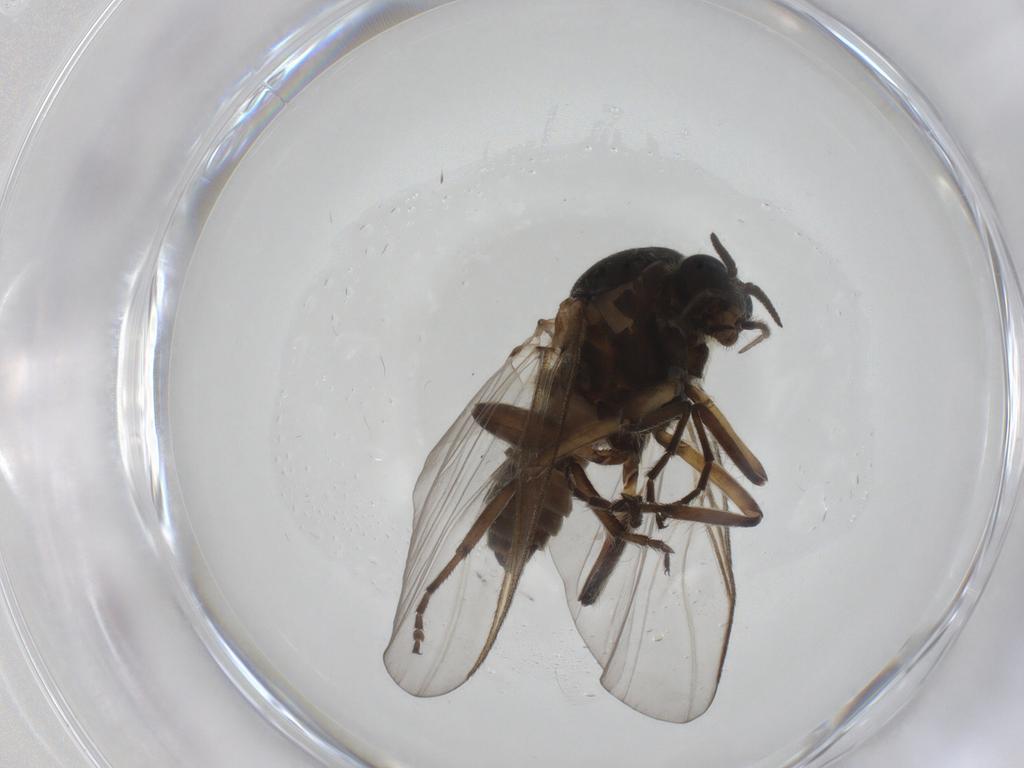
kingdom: Animalia
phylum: Arthropoda
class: Insecta
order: Diptera
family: Simuliidae
